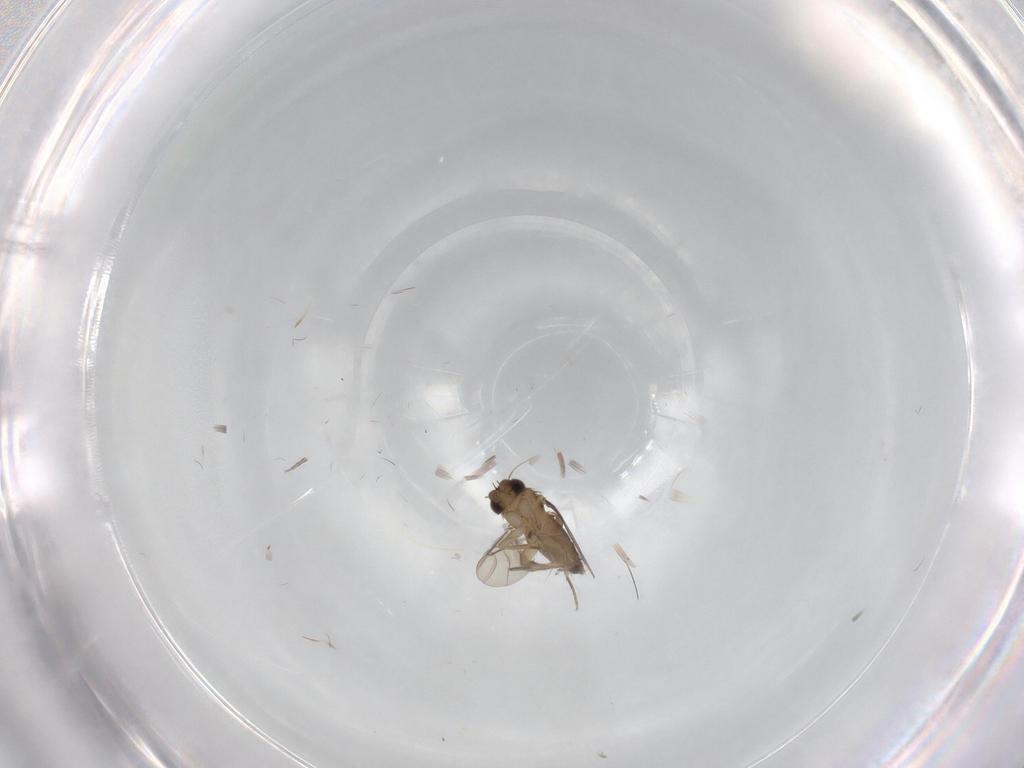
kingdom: Animalia
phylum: Arthropoda
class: Insecta
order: Diptera
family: Phoridae
